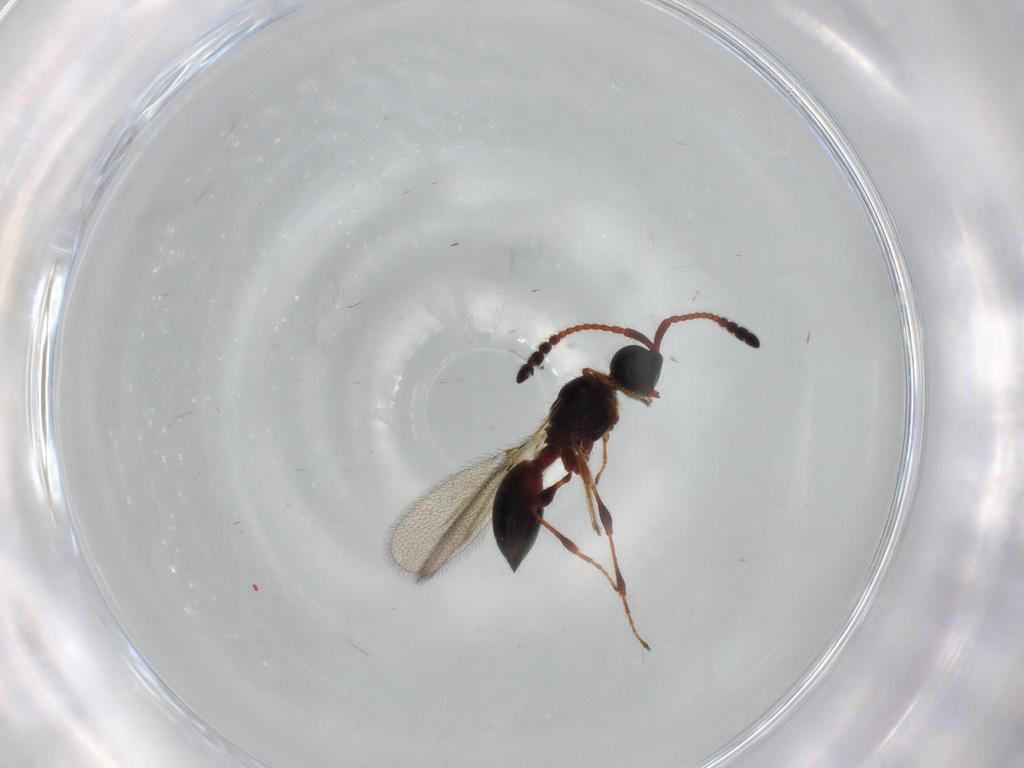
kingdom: Animalia
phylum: Arthropoda
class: Insecta
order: Hymenoptera
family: Diapriidae
